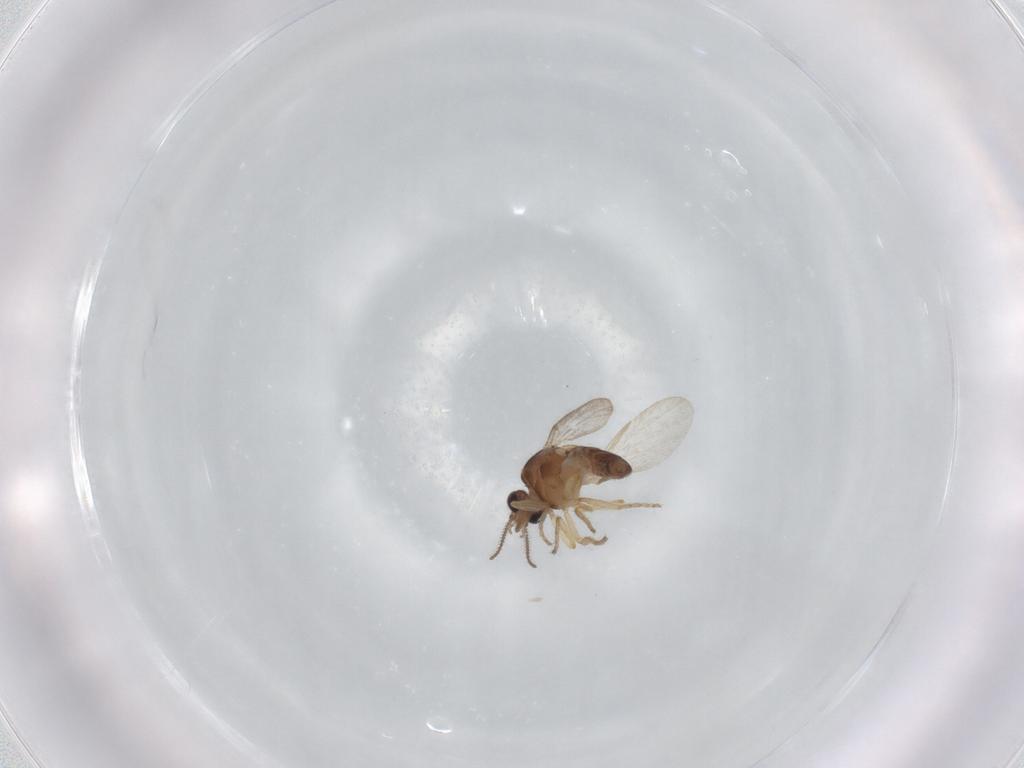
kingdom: Animalia
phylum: Arthropoda
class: Insecta
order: Diptera
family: Ceratopogonidae
